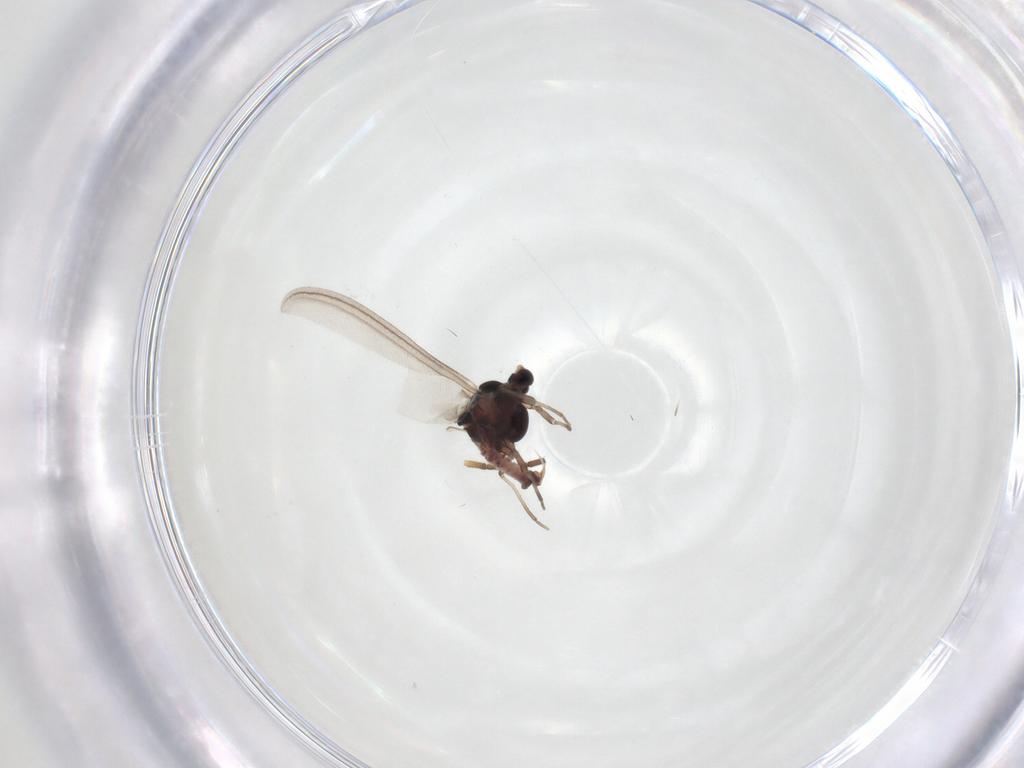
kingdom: Animalia
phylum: Arthropoda
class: Insecta
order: Diptera
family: Mycetophilidae
